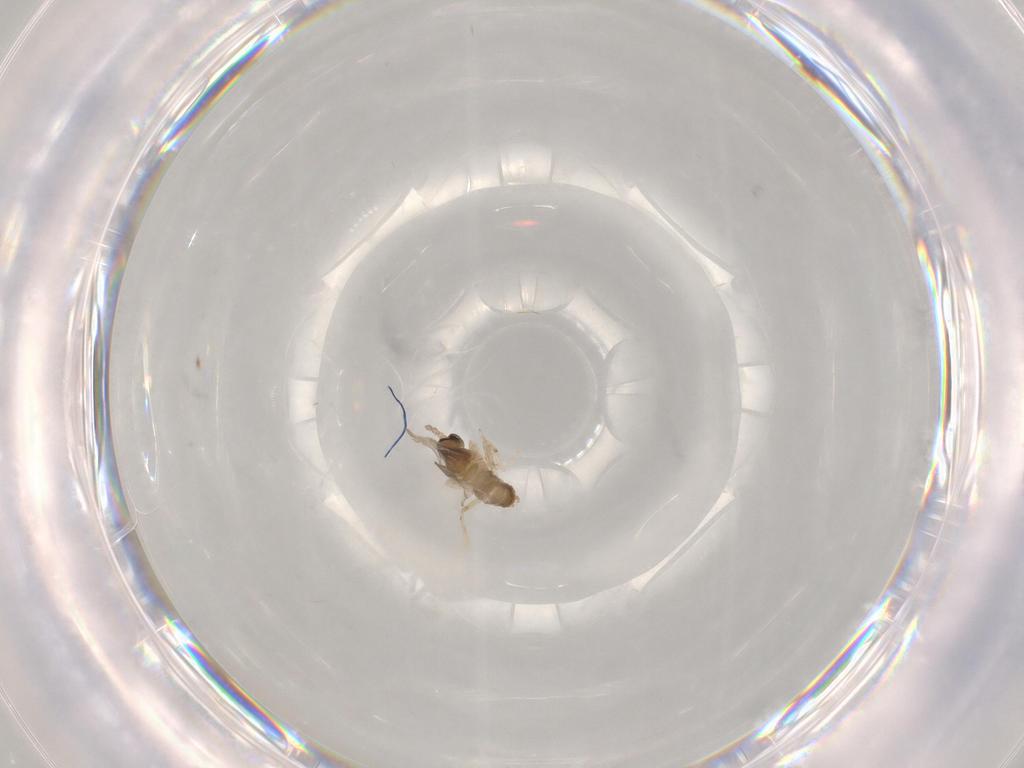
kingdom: Animalia
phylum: Arthropoda
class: Insecta
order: Diptera
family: Cecidomyiidae
